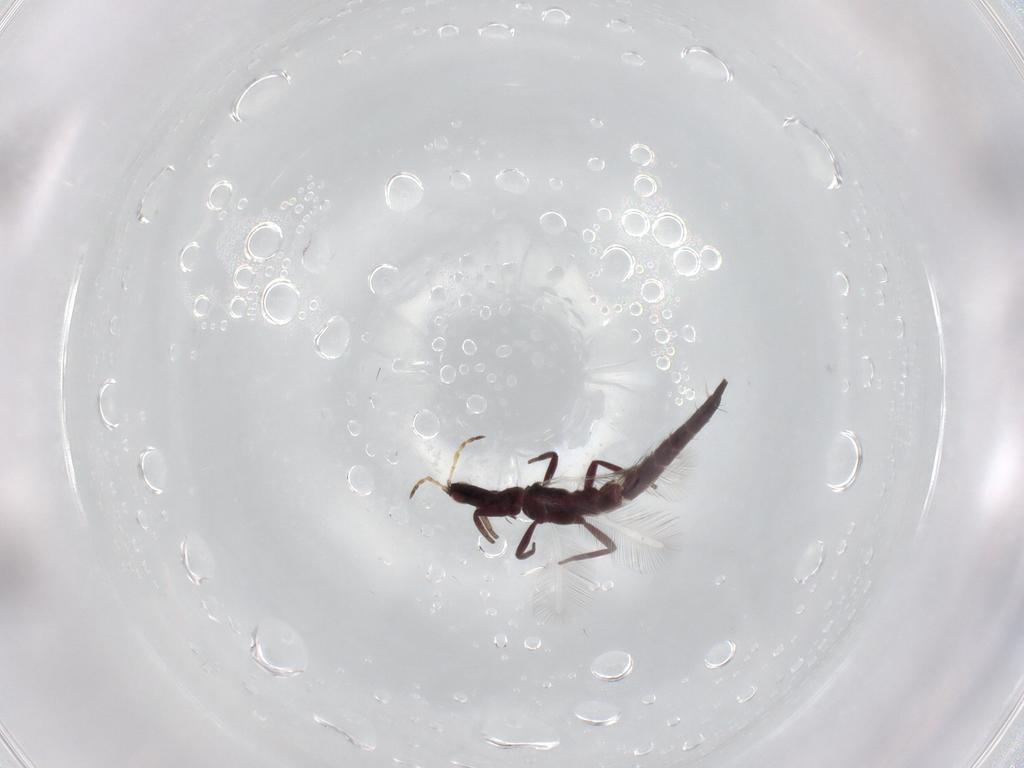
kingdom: Animalia
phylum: Arthropoda
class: Insecta
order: Thysanoptera
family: Phlaeothripidae
